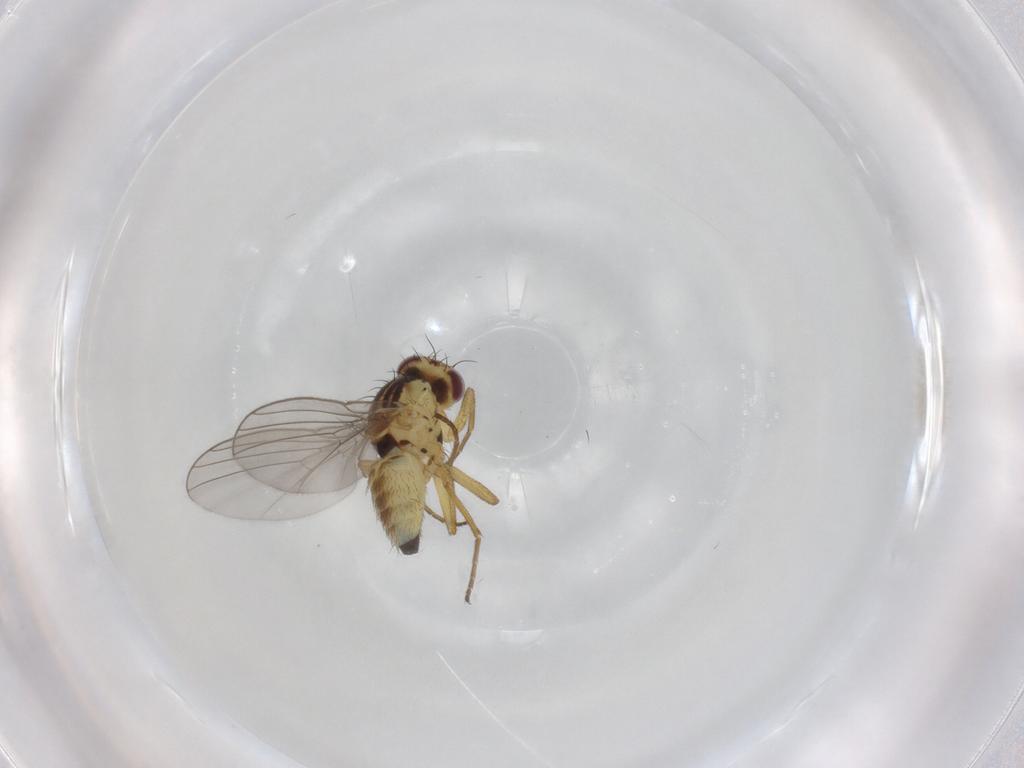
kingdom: Animalia
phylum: Arthropoda
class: Insecta
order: Diptera
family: Agromyzidae
